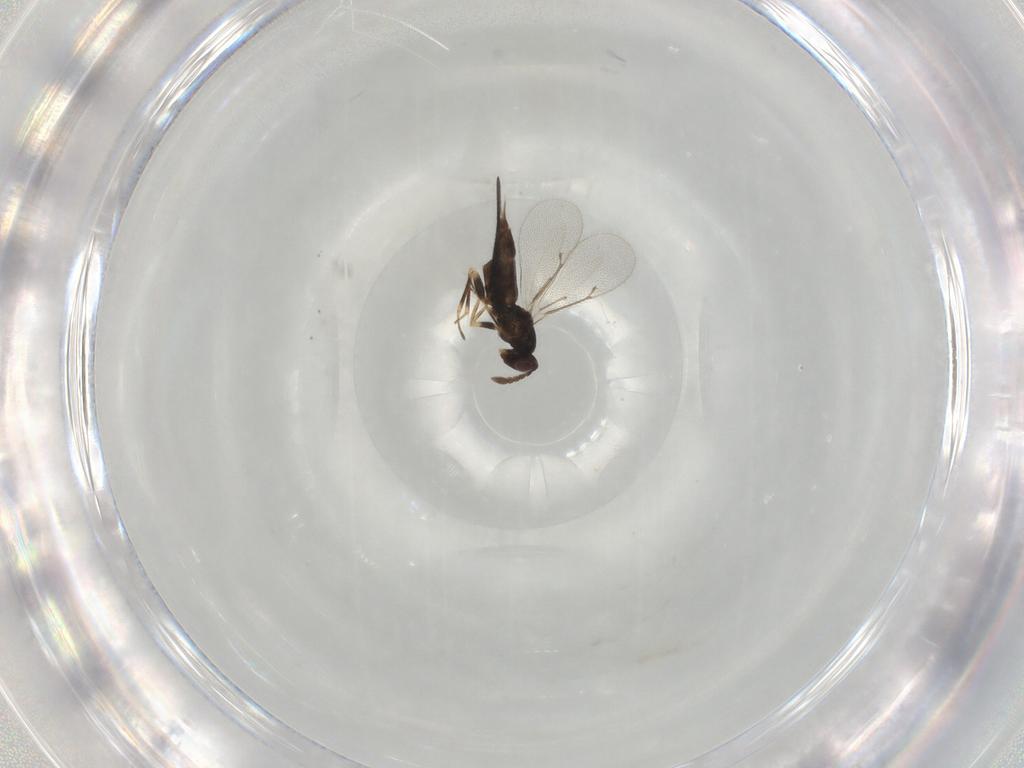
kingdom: Animalia
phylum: Arthropoda
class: Insecta
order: Hymenoptera
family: Eulophidae
